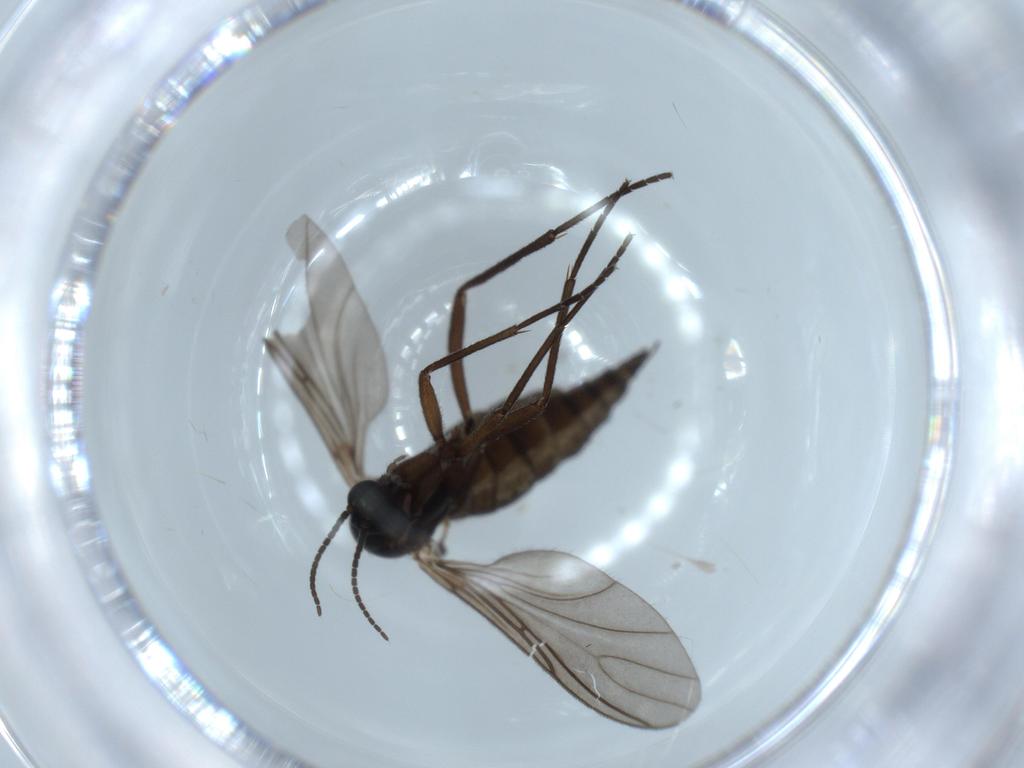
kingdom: Animalia
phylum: Arthropoda
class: Insecta
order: Diptera
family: Sciaridae
